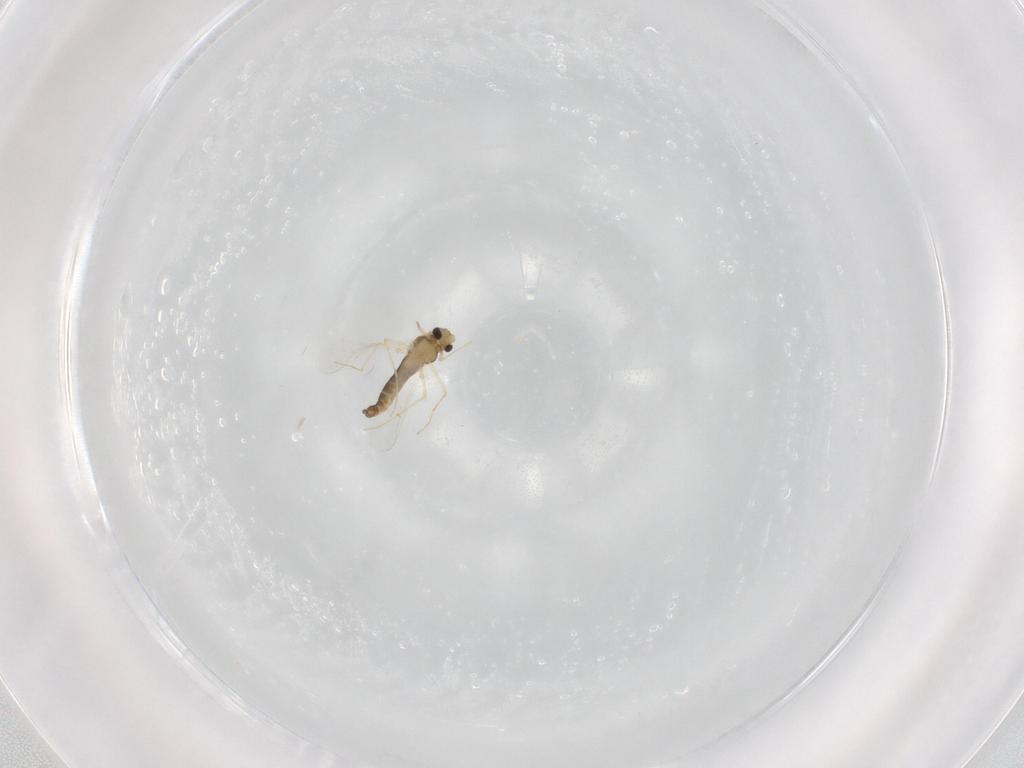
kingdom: Animalia
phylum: Arthropoda
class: Insecta
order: Diptera
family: Chironomidae
